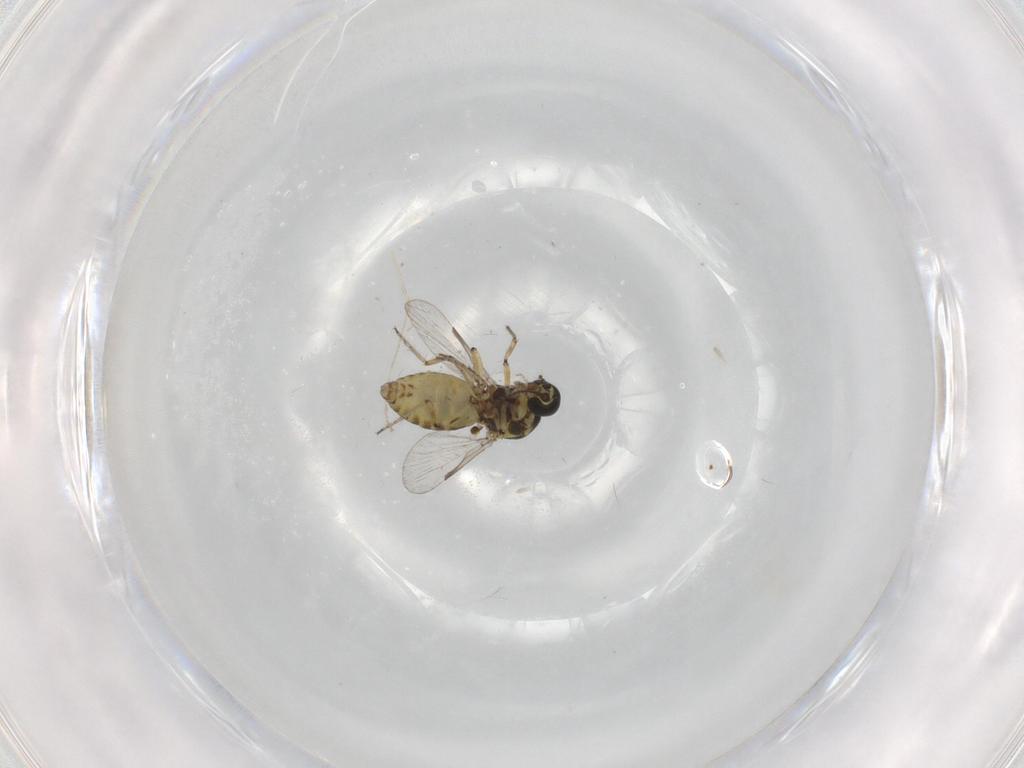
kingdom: Animalia
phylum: Arthropoda
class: Insecta
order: Diptera
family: Cecidomyiidae
